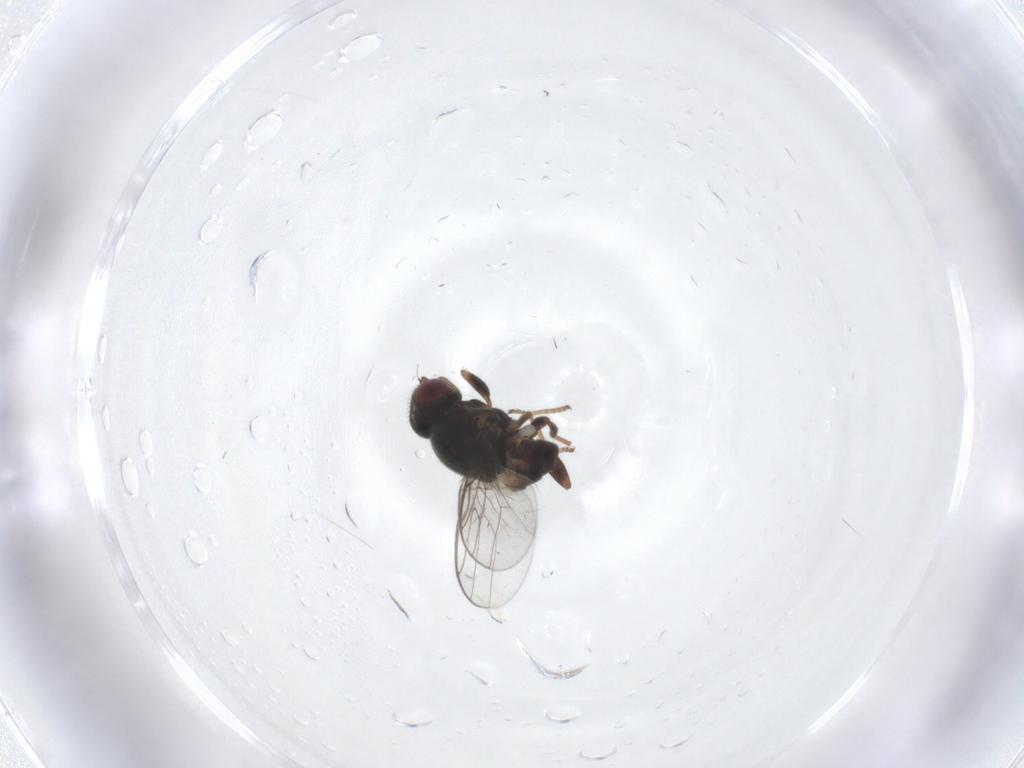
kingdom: Animalia
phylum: Arthropoda
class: Insecta
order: Diptera
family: Chloropidae
